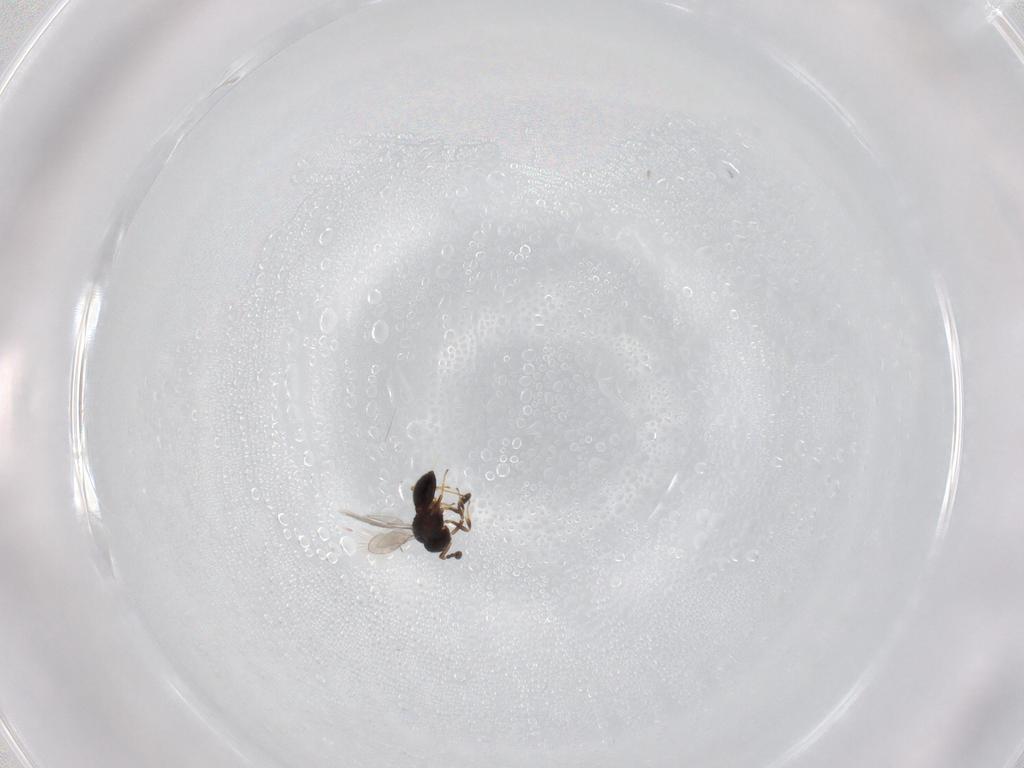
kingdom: Animalia
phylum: Arthropoda
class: Insecta
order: Hymenoptera
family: Scelionidae
